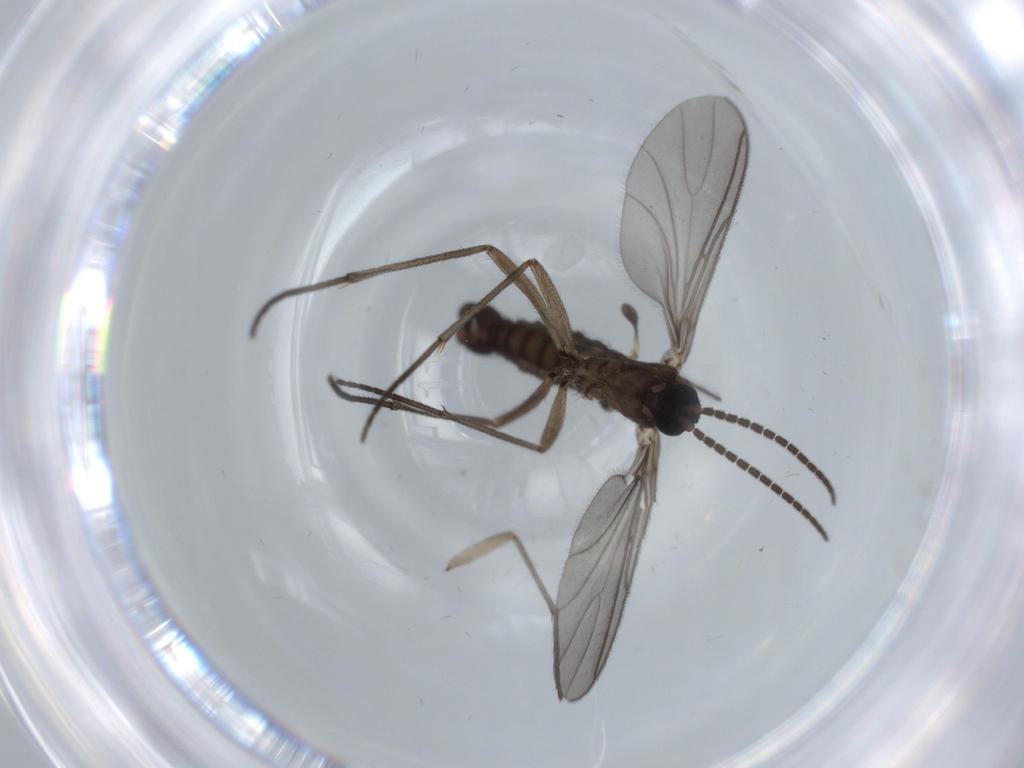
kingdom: Animalia
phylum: Arthropoda
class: Insecta
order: Diptera
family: Sciaridae
